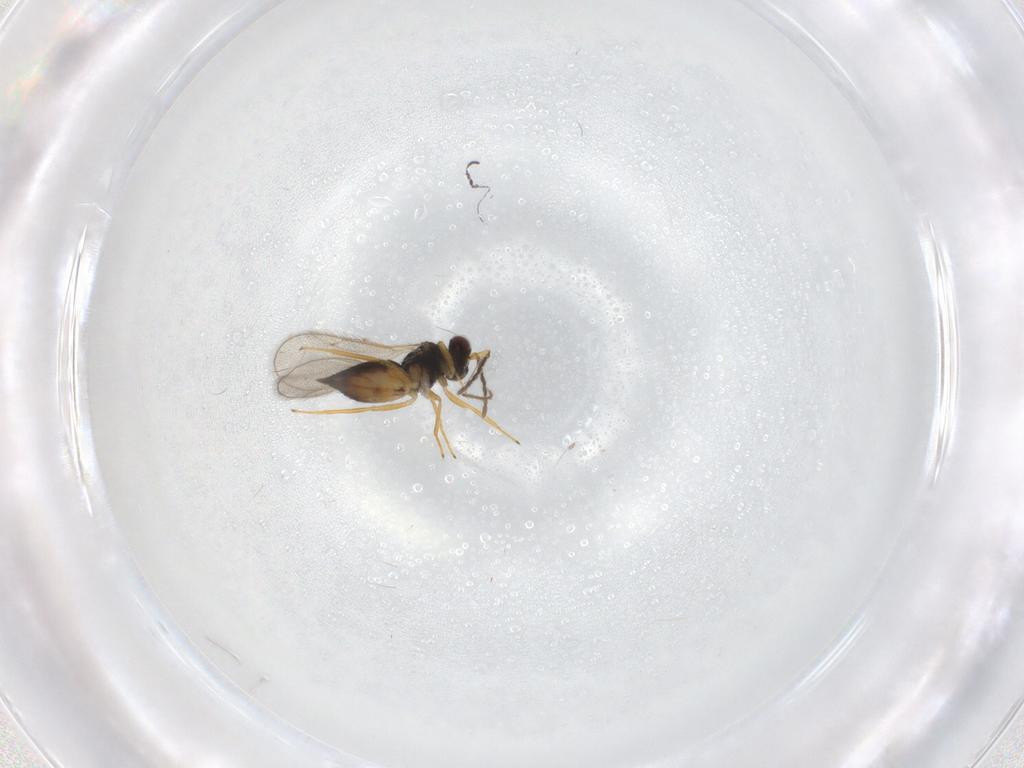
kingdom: Animalia
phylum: Arthropoda
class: Insecta
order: Hymenoptera
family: Eulophidae
